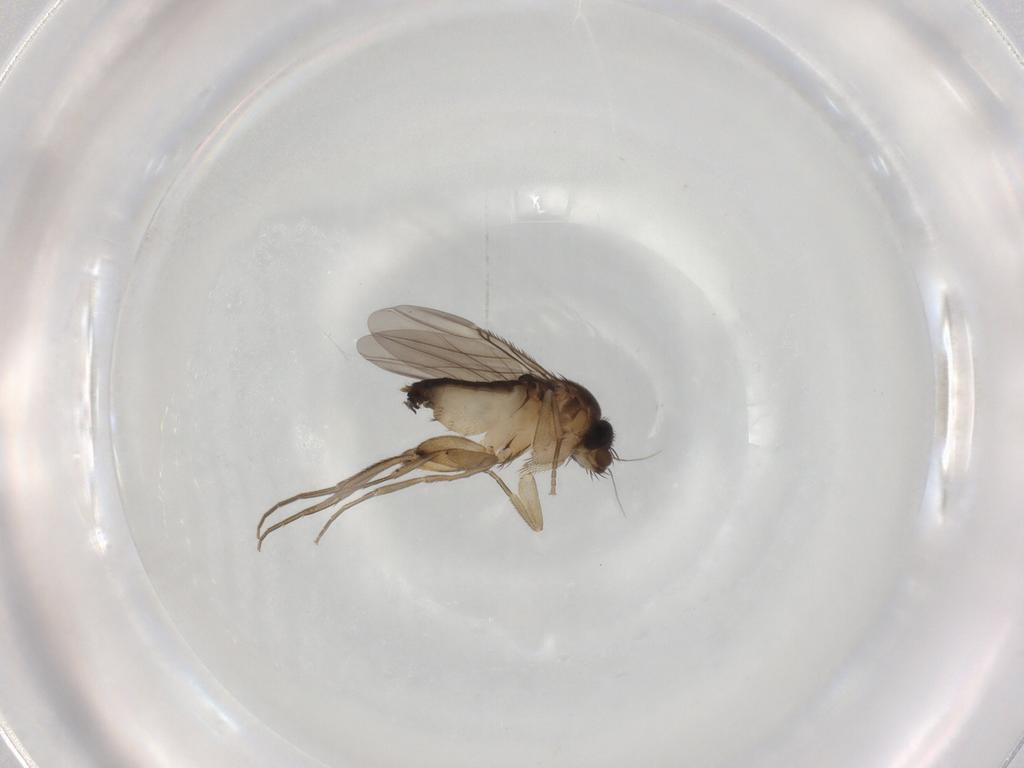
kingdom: Animalia
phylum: Arthropoda
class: Insecta
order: Diptera
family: Phoridae
